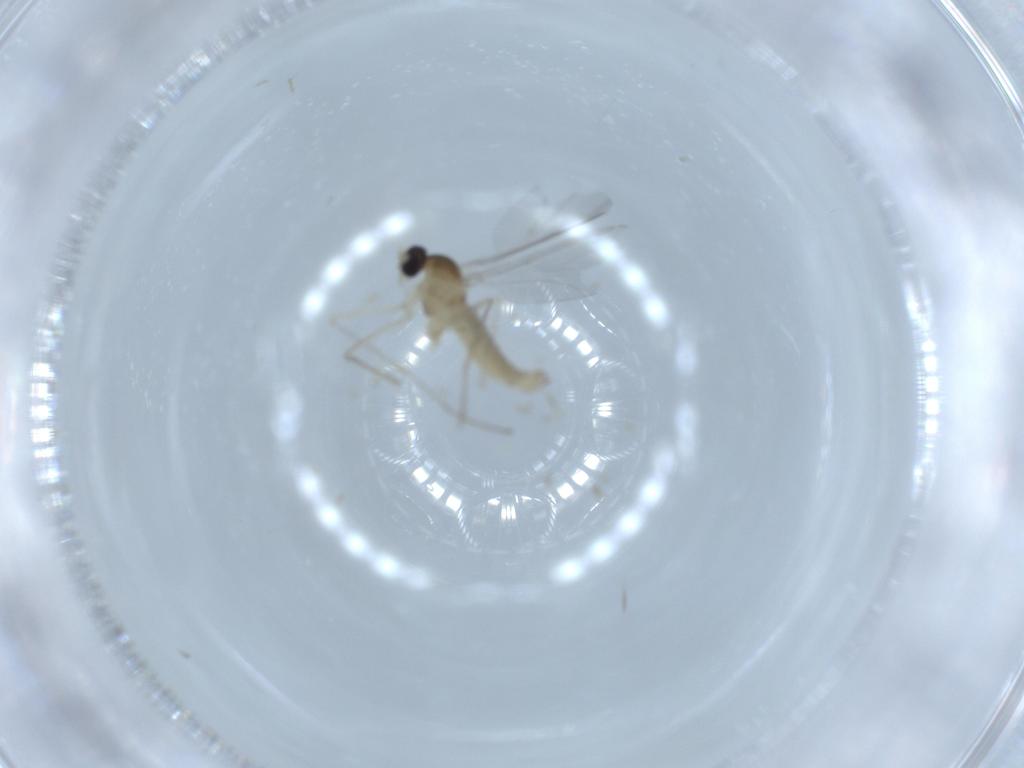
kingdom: Animalia
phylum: Arthropoda
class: Insecta
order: Diptera
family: Cecidomyiidae
